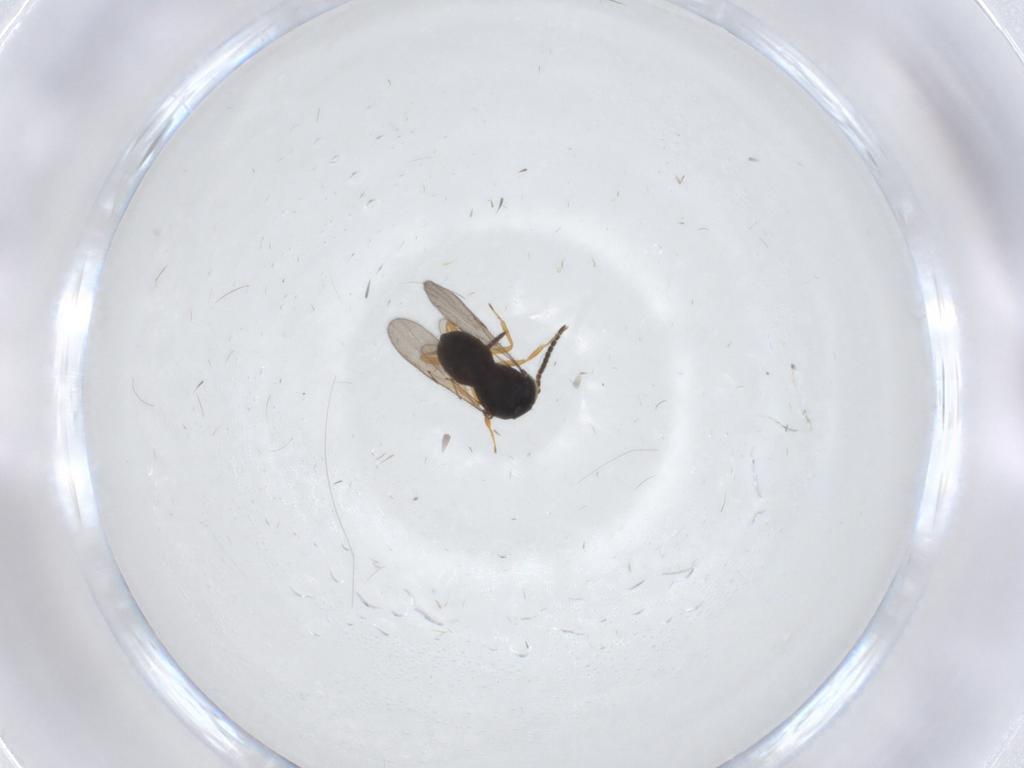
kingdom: Animalia
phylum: Arthropoda
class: Insecta
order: Hymenoptera
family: Scelionidae
